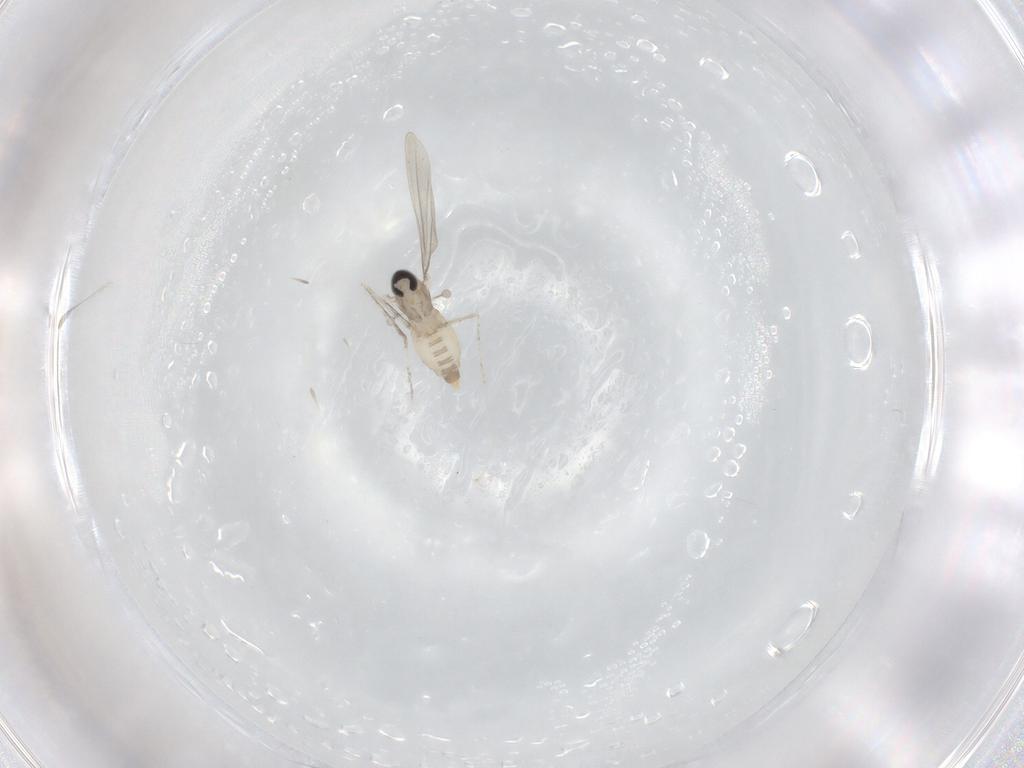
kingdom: Animalia
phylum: Arthropoda
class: Insecta
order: Diptera
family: Cecidomyiidae
